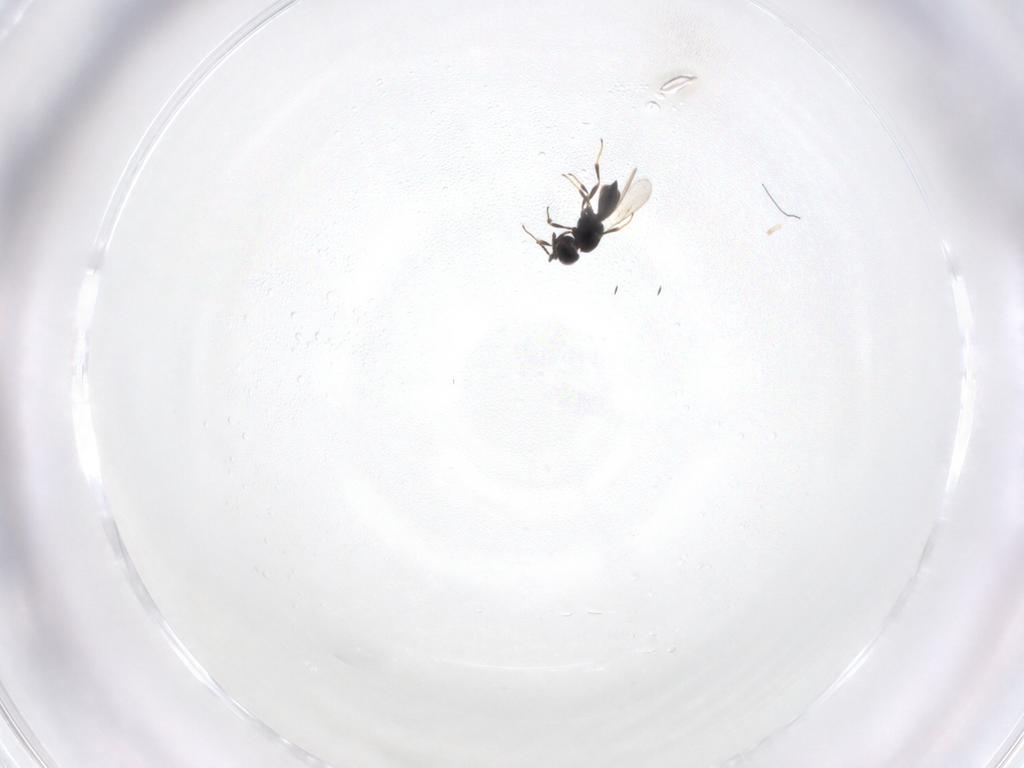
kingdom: Animalia
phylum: Arthropoda
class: Insecta
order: Hymenoptera
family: Scelionidae
